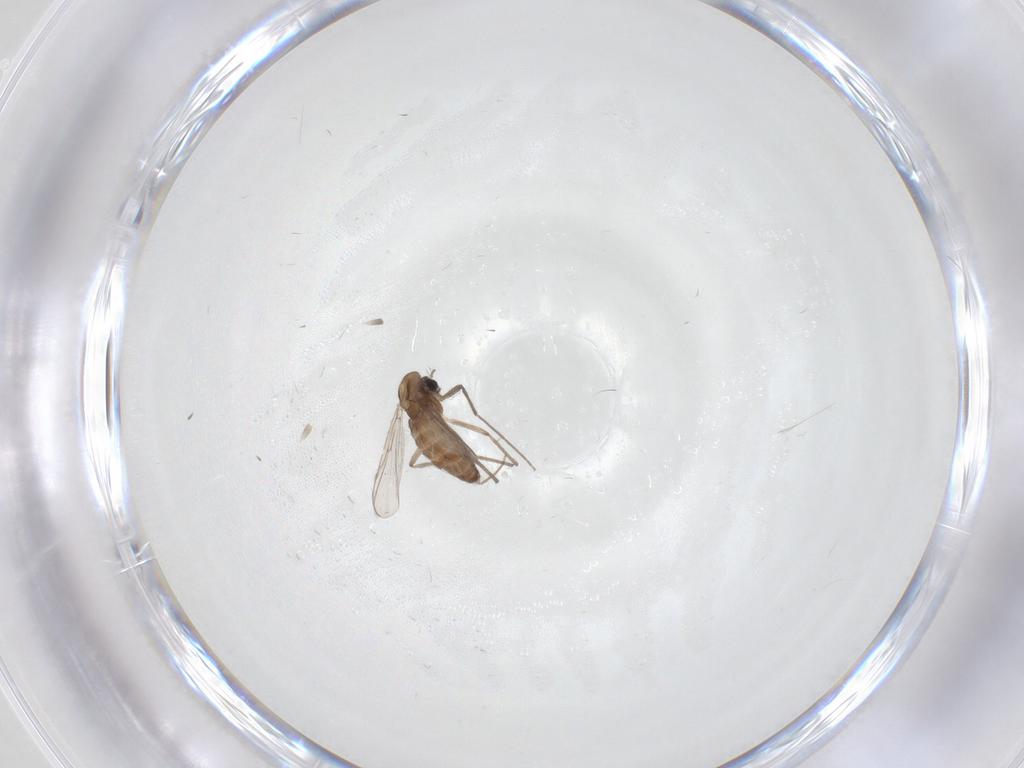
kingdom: Animalia
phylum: Arthropoda
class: Insecta
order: Diptera
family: Chironomidae
